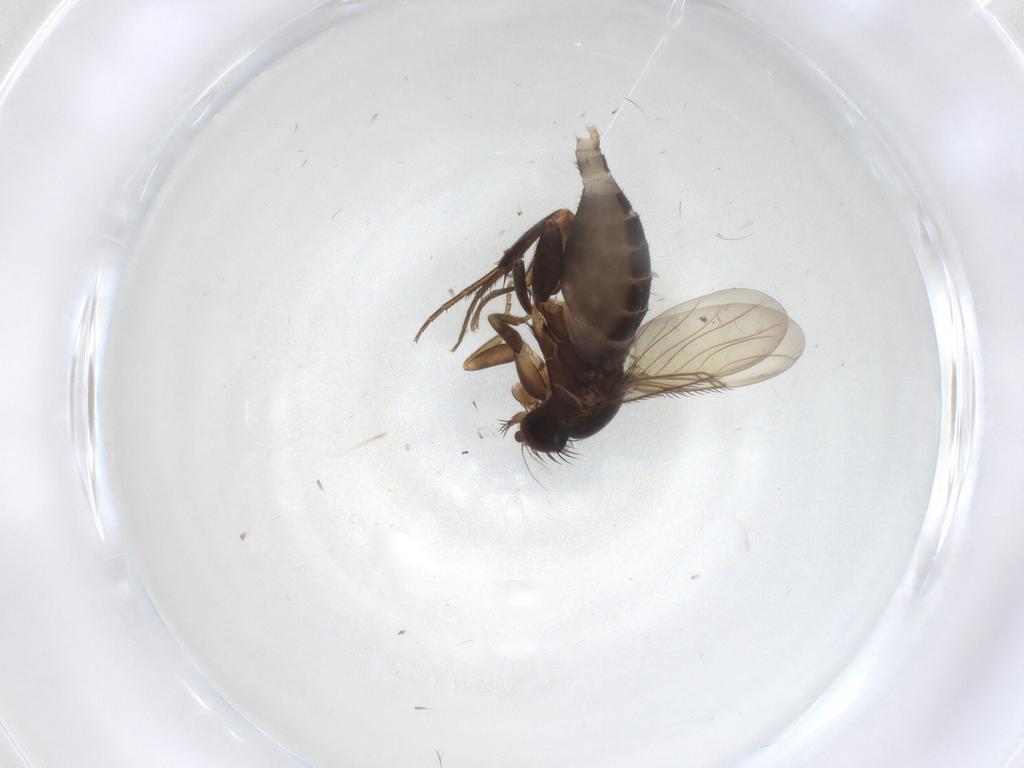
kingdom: Animalia
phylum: Arthropoda
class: Insecta
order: Diptera
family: Phoridae
